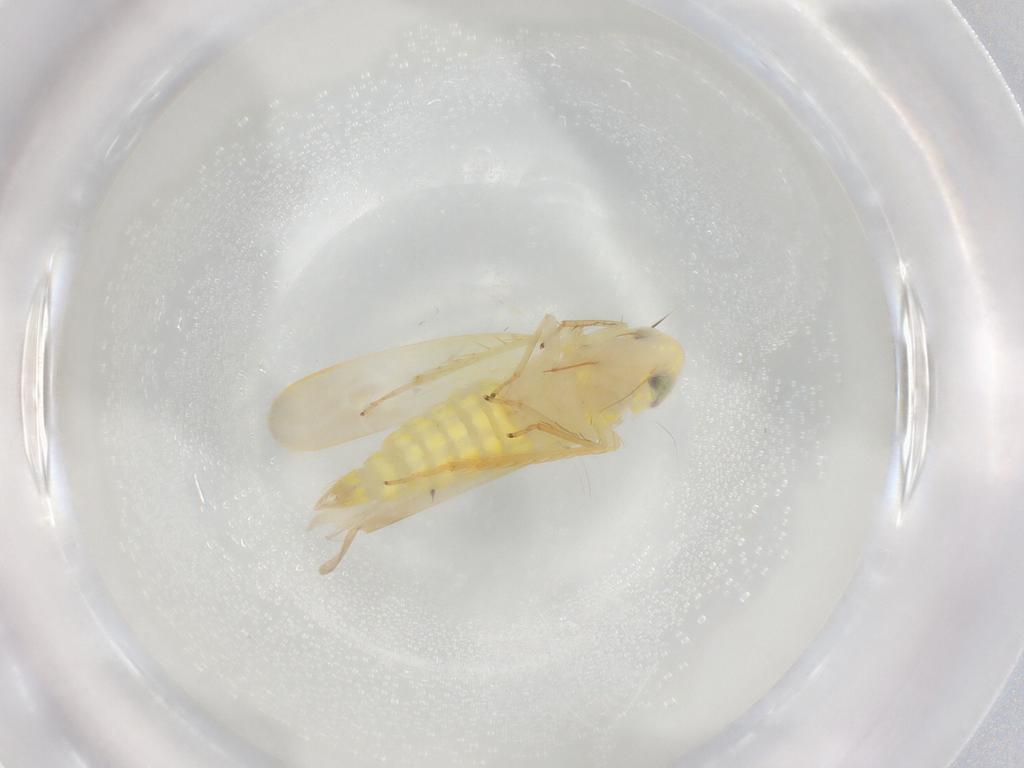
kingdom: Animalia
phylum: Arthropoda
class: Insecta
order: Hemiptera
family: Cicadellidae
